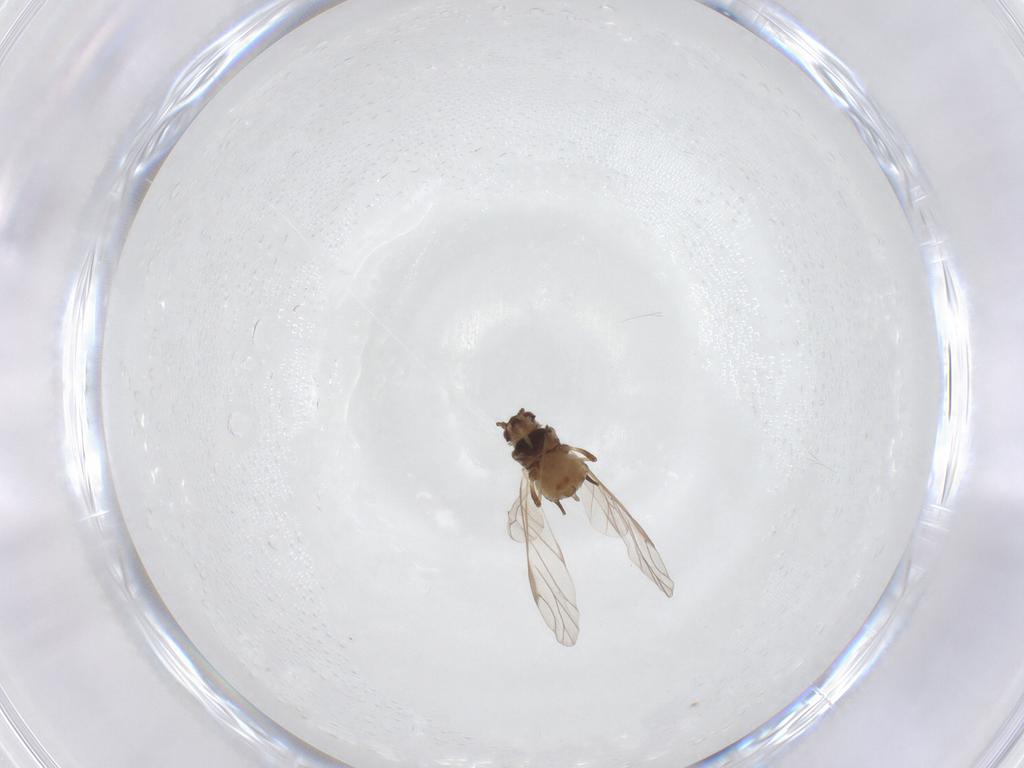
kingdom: Animalia
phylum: Arthropoda
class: Insecta
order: Hemiptera
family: Aphididae
